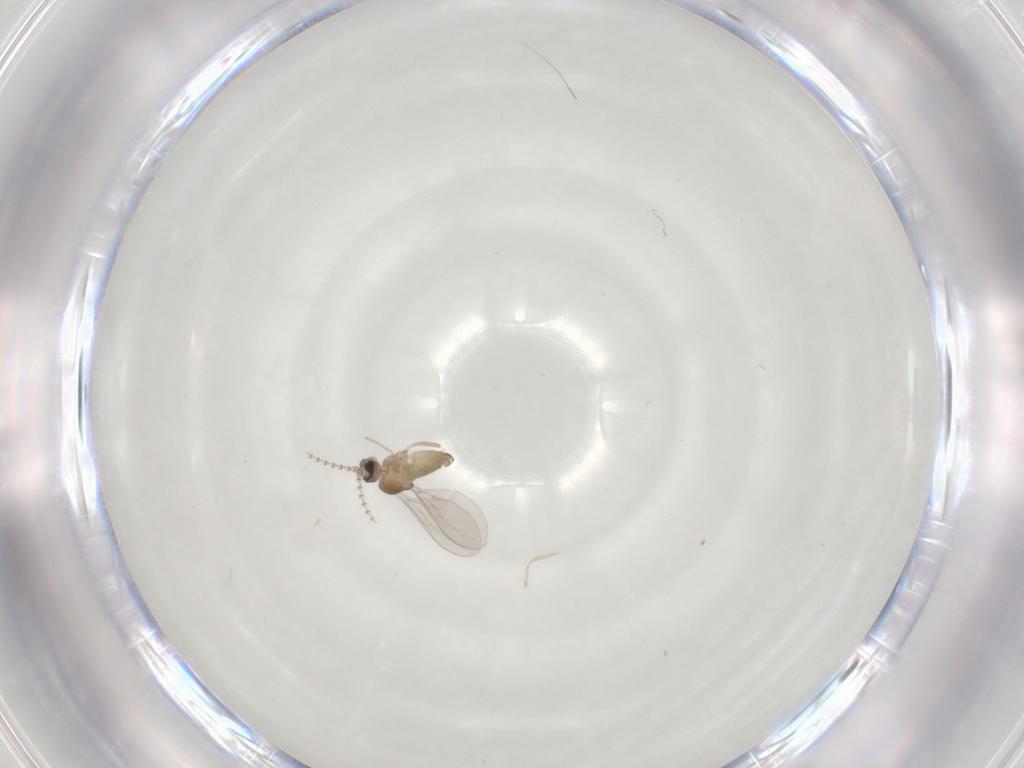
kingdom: Animalia
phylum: Arthropoda
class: Insecta
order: Diptera
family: Cecidomyiidae
